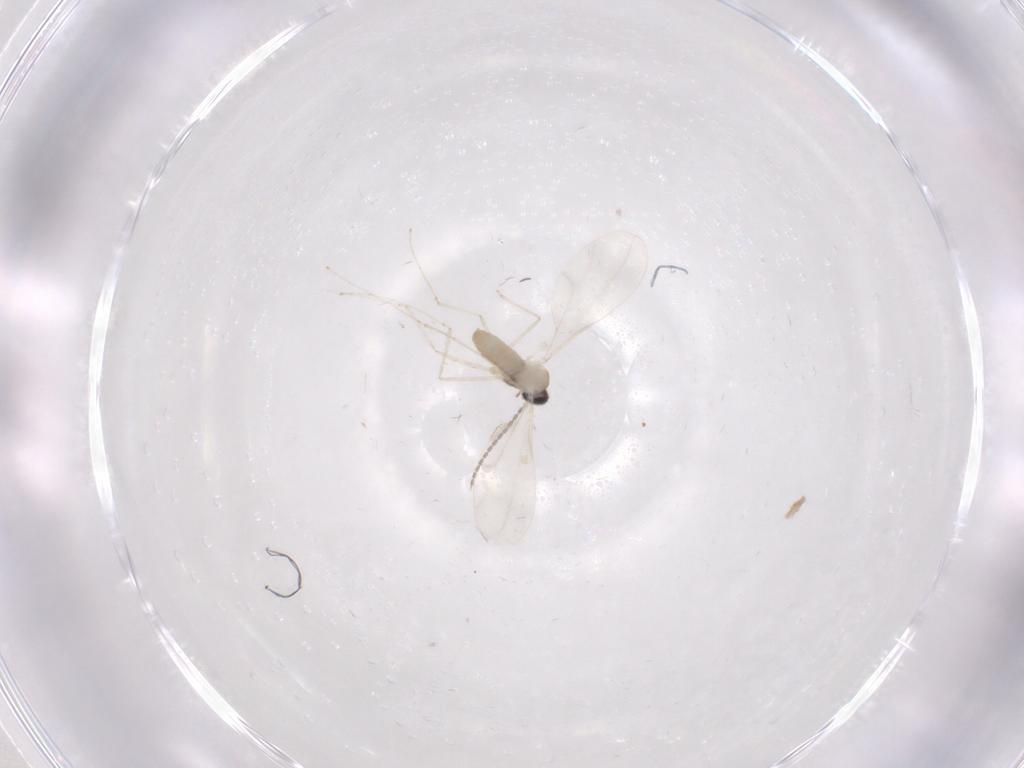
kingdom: Animalia
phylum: Arthropoda
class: Insecta
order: Diptera
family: Cecidomyiidae
